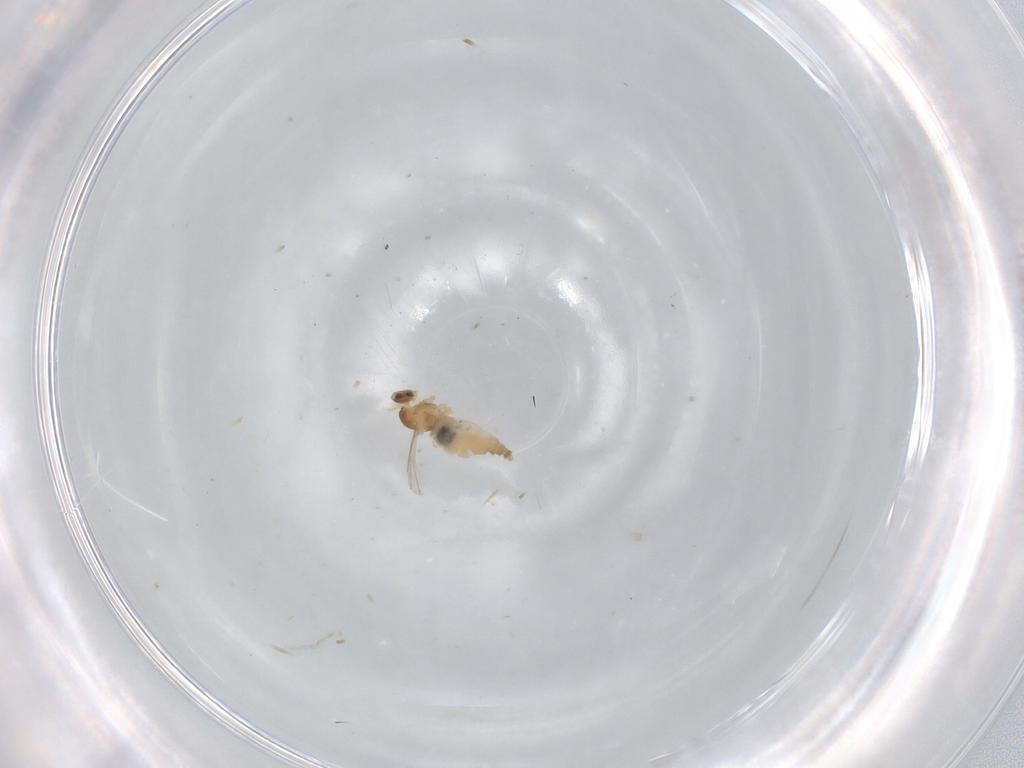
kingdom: Animalia
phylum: Arthropoda
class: Insecta
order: Diptera
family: Cecidomyiidae
